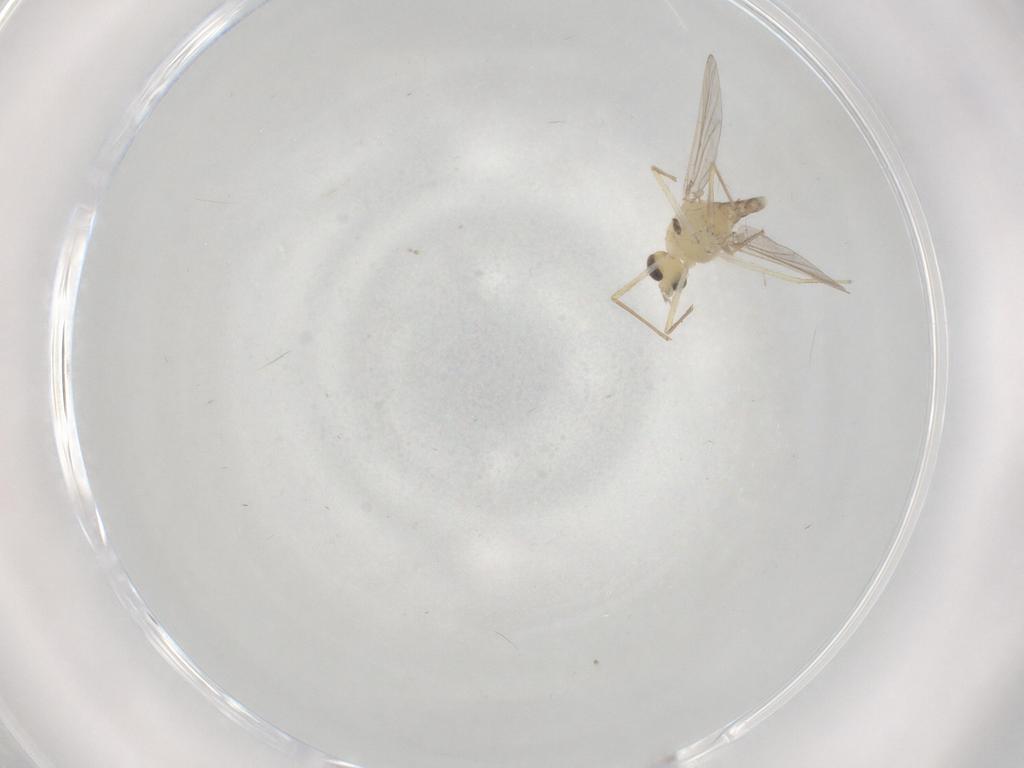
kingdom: Animalia
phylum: Arthropoda
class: Insecta
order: Diptera
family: Chironomidae
